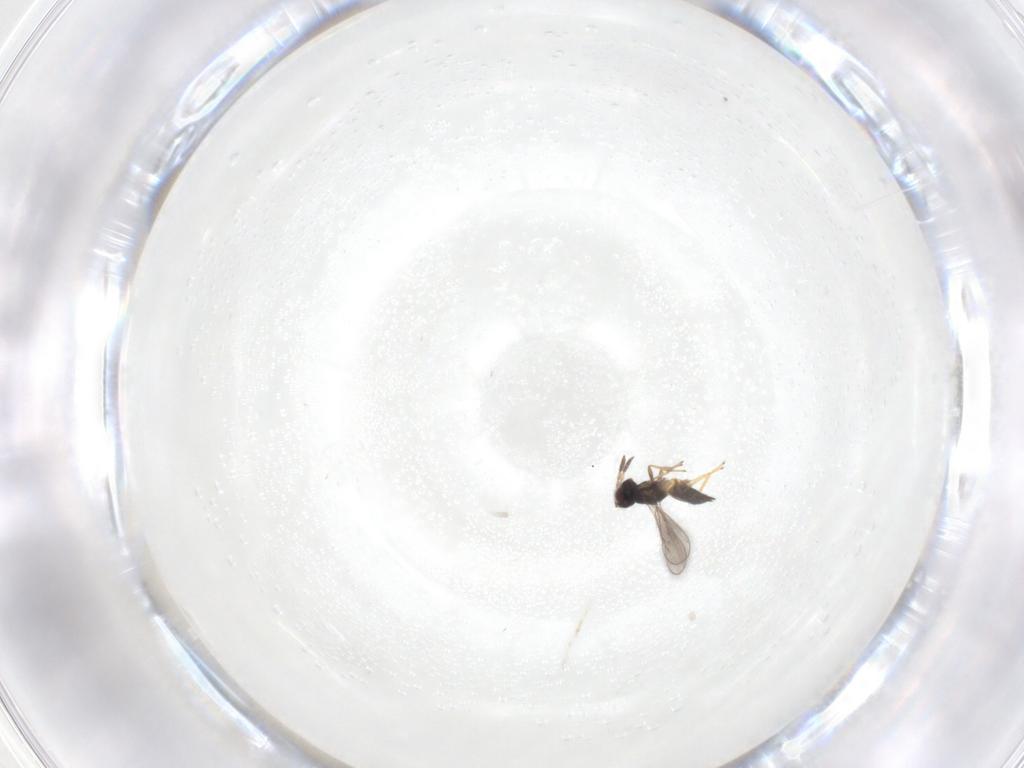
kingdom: Animalia
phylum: Arthropoda
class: Insecta
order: Hymenoptera
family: Eulophidae
